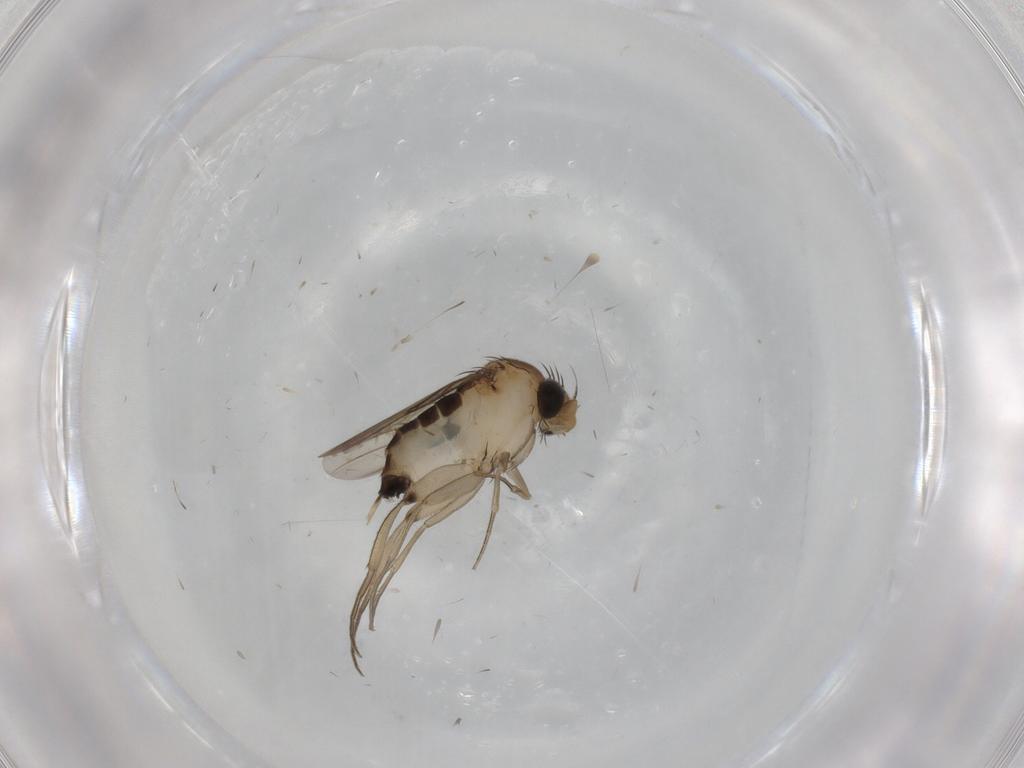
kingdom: Animalia
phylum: Arthropoda
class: Insecta
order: Diptera
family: Phoridae
